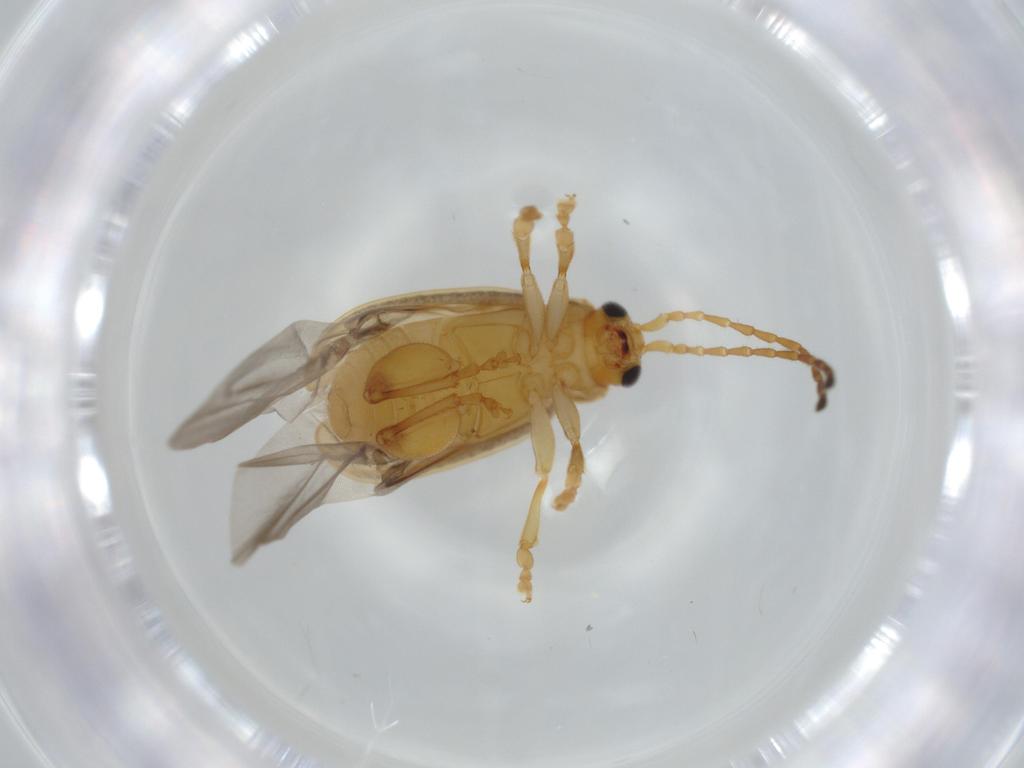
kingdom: Animalia
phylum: Arthropoda
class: Insecta
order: Coleoptera
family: Chrysomelidae
